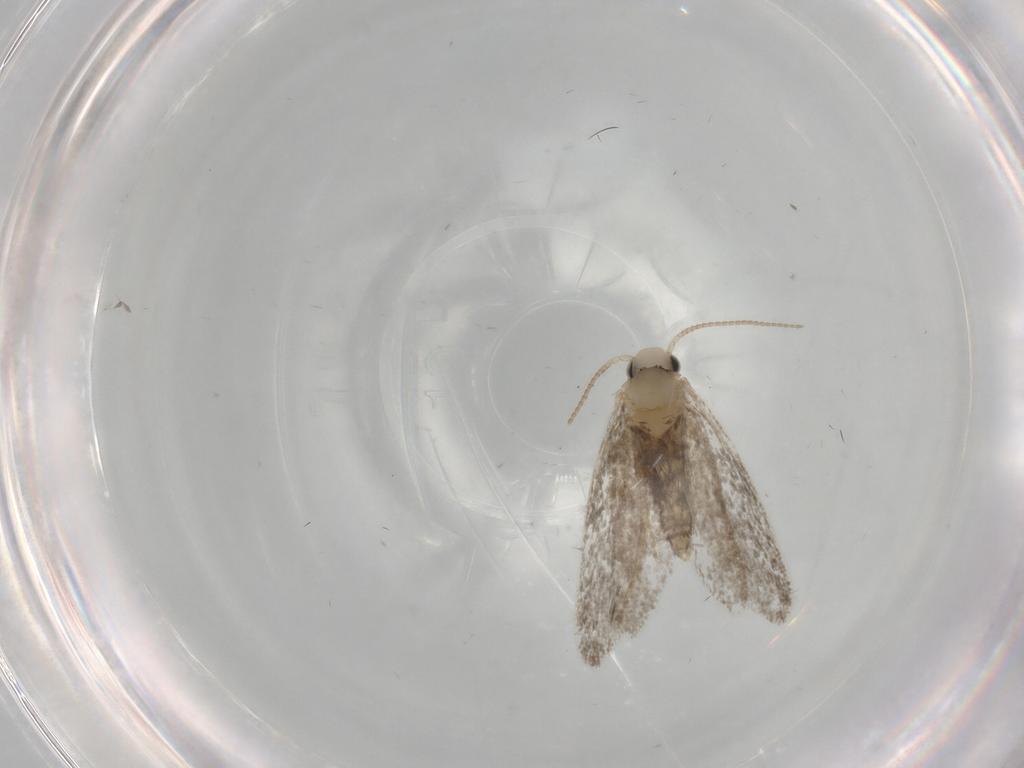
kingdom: Animalia
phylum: Arthropoda
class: Insecta
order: Lepidoptera
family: Psychidae
